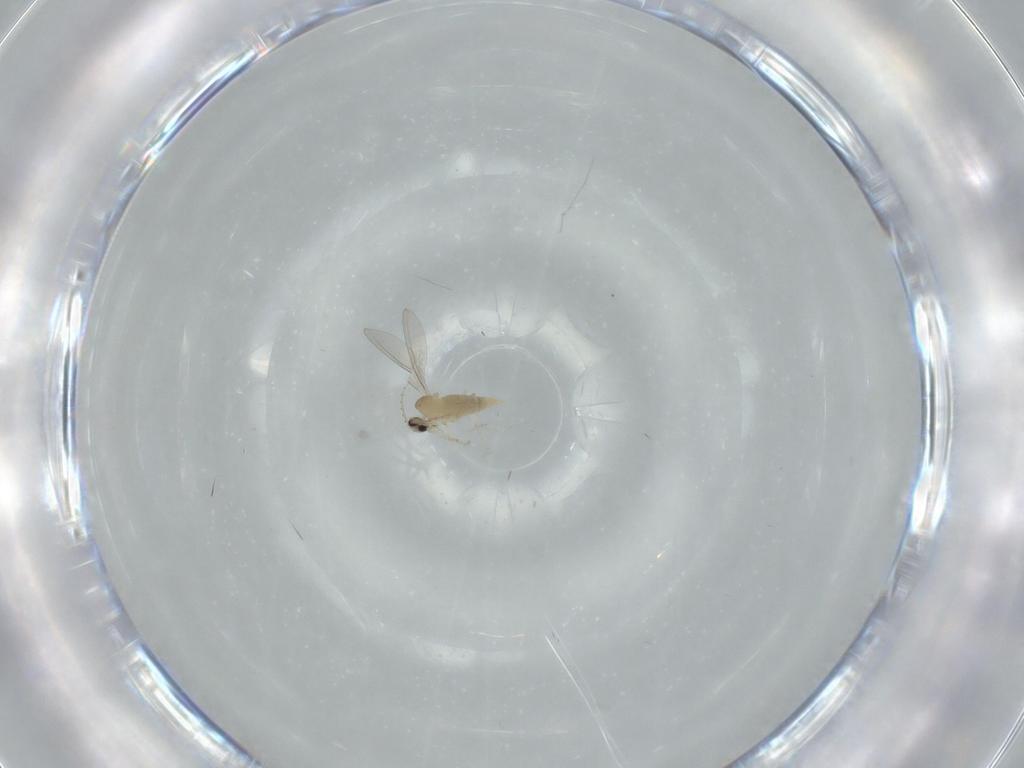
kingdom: Animalia
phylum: Arthropoda
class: Insecta
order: Diptera
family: Cecidomyiidae
